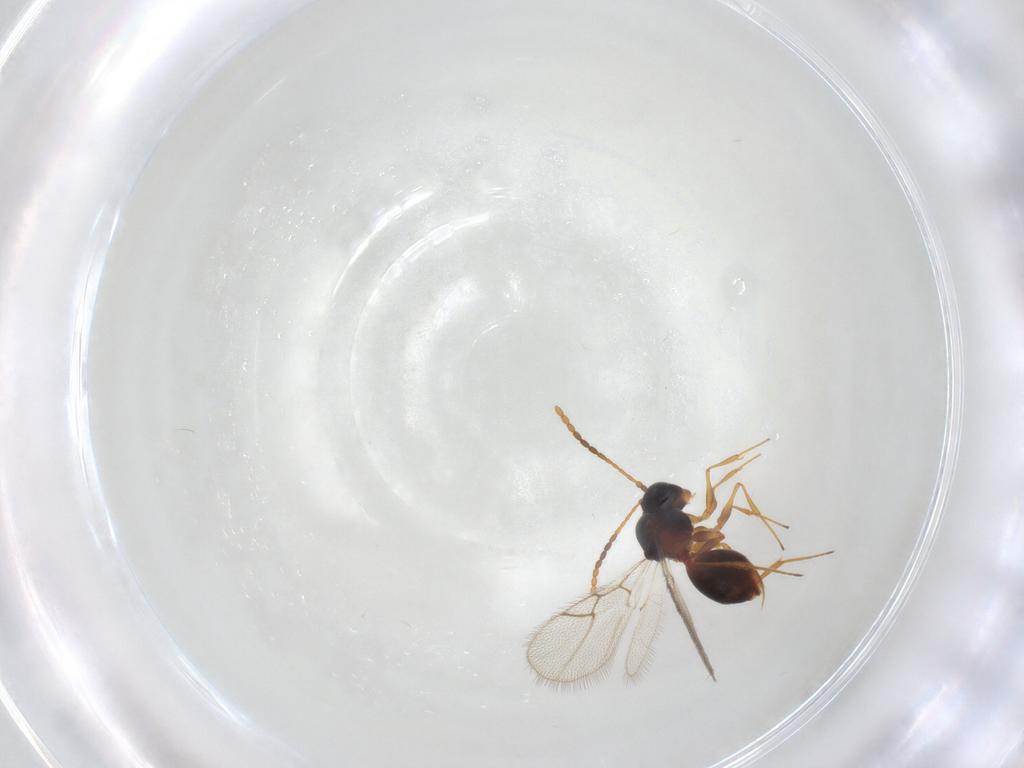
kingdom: Animalia
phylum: Arthropoda
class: Insecta
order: Hymenoptera
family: Figitidae
